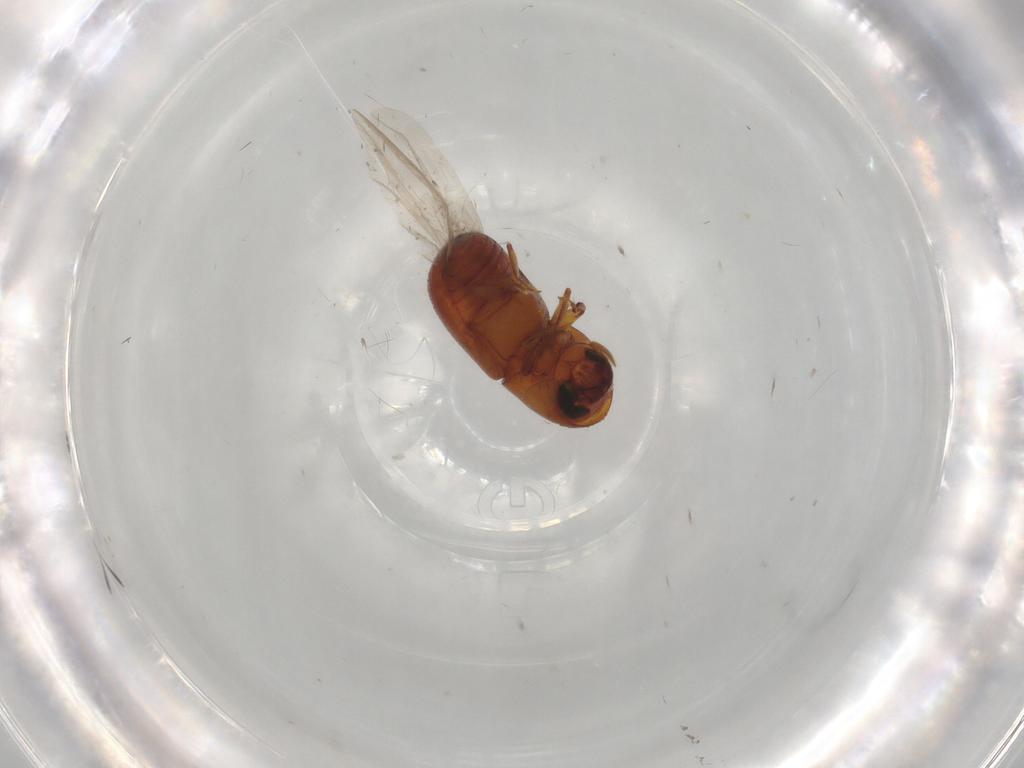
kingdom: Animalia
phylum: Arthropoda
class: Insecta
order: Coleoptera
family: Curculionidae
